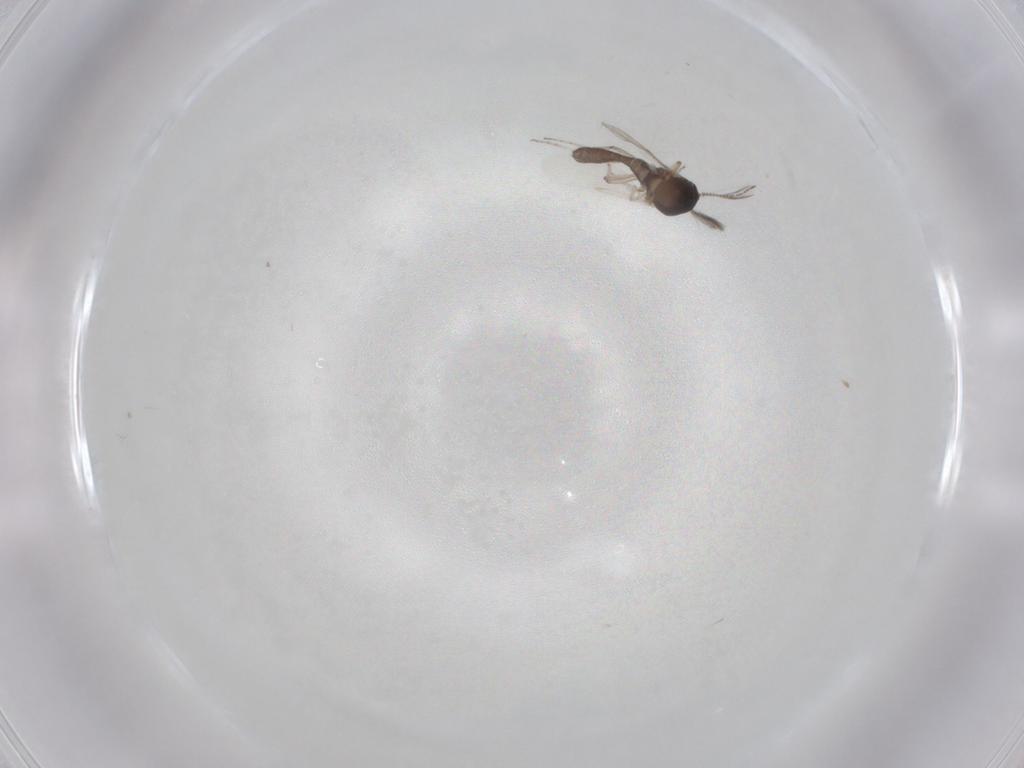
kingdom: Animalia
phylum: Arthropoda
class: Insecta
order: Diptera
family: Ceratopogonidae
